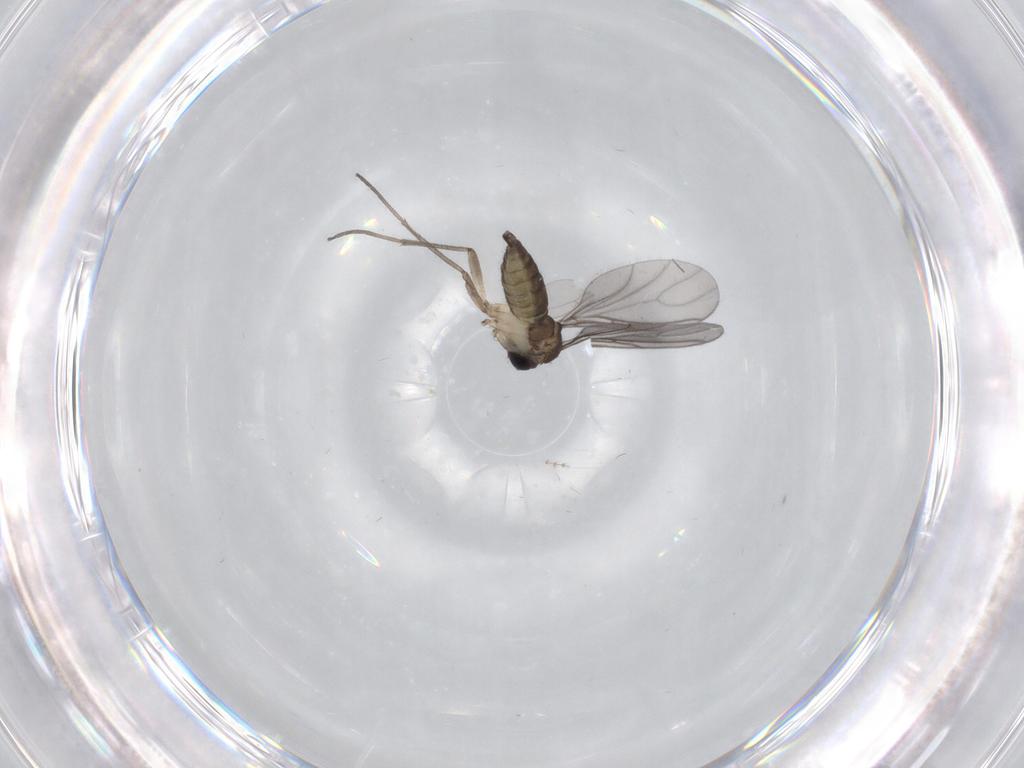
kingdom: Animalia
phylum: Arthropoda
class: Insecta
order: Diptera
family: Sciaridae
